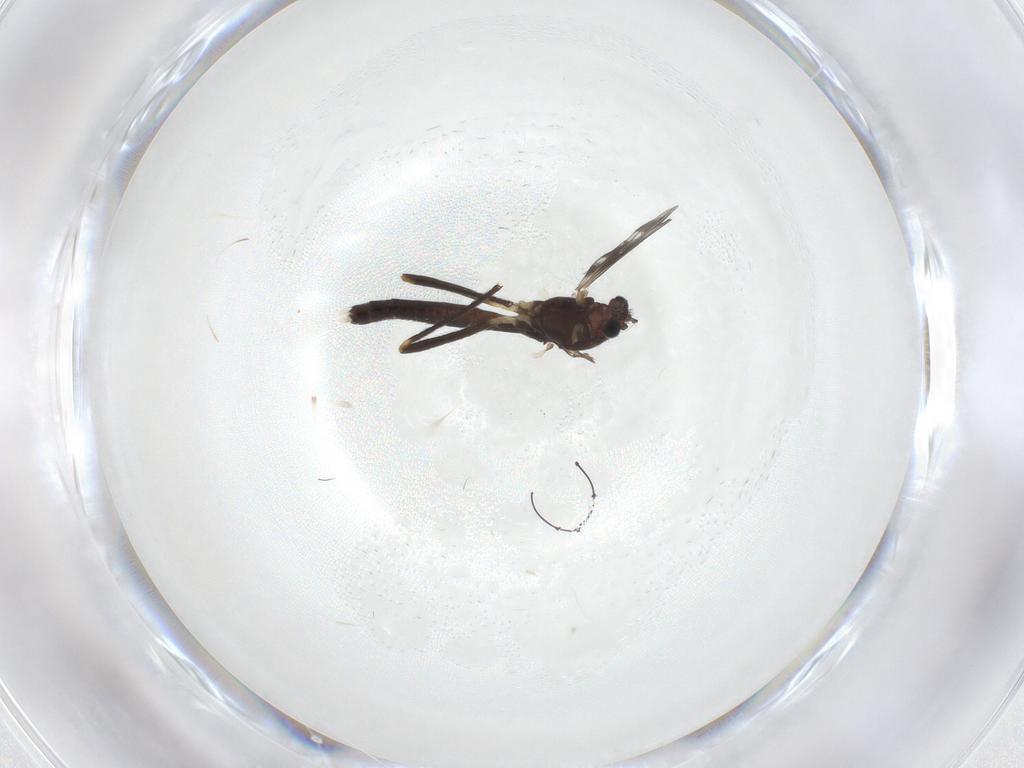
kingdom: Animalia
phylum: Arthropoda
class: Insecta
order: Diptera
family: Chironomidae
